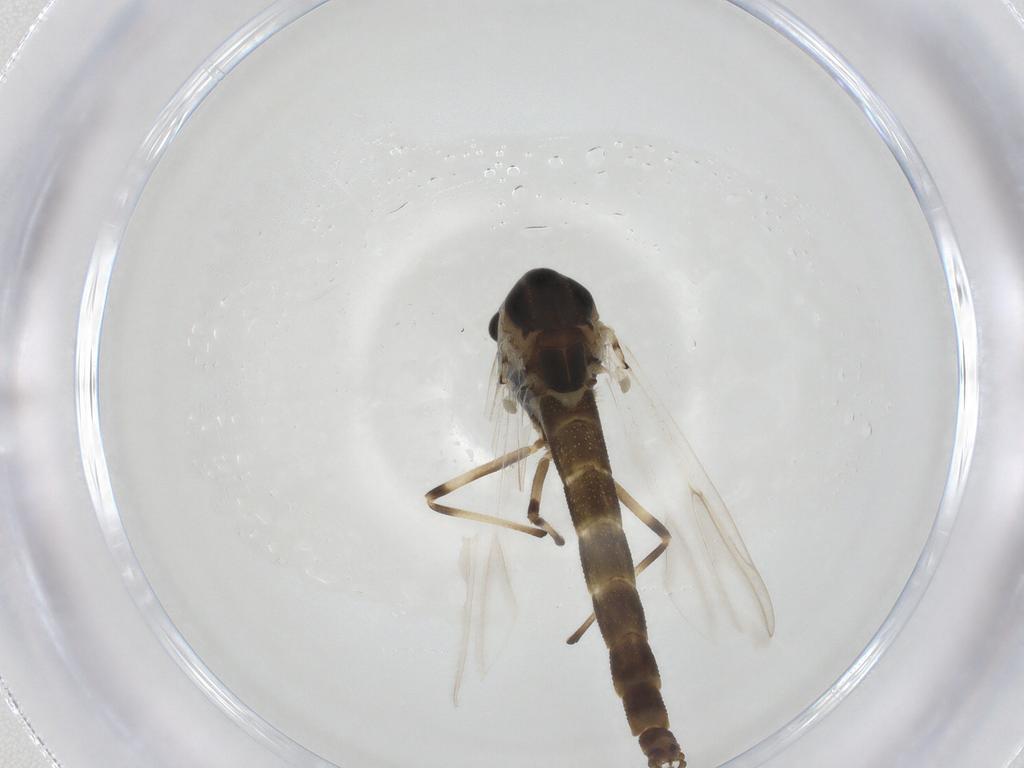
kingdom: Animalia
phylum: Arthropoda
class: Insecta
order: Diptera
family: Chironomidae
